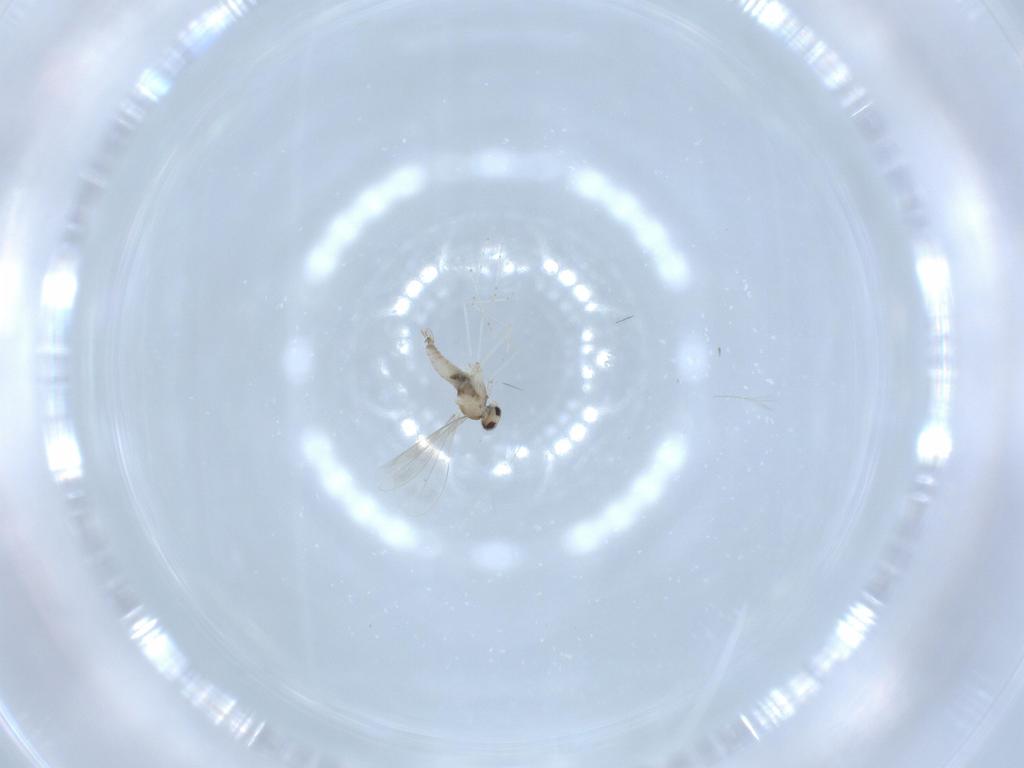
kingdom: Animalia
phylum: Arthropoda
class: Insecta
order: Diptera
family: Cecidomyiidae
